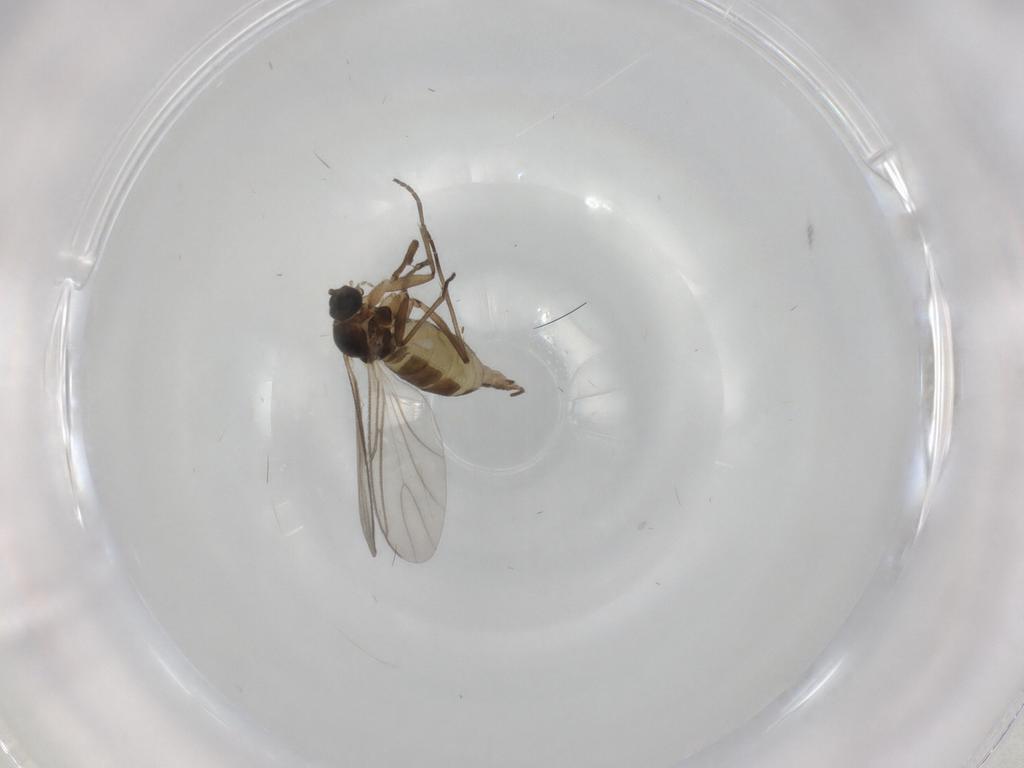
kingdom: Animalia
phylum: Arthropoda
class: Insecta
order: Diptera
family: Sciaridae
